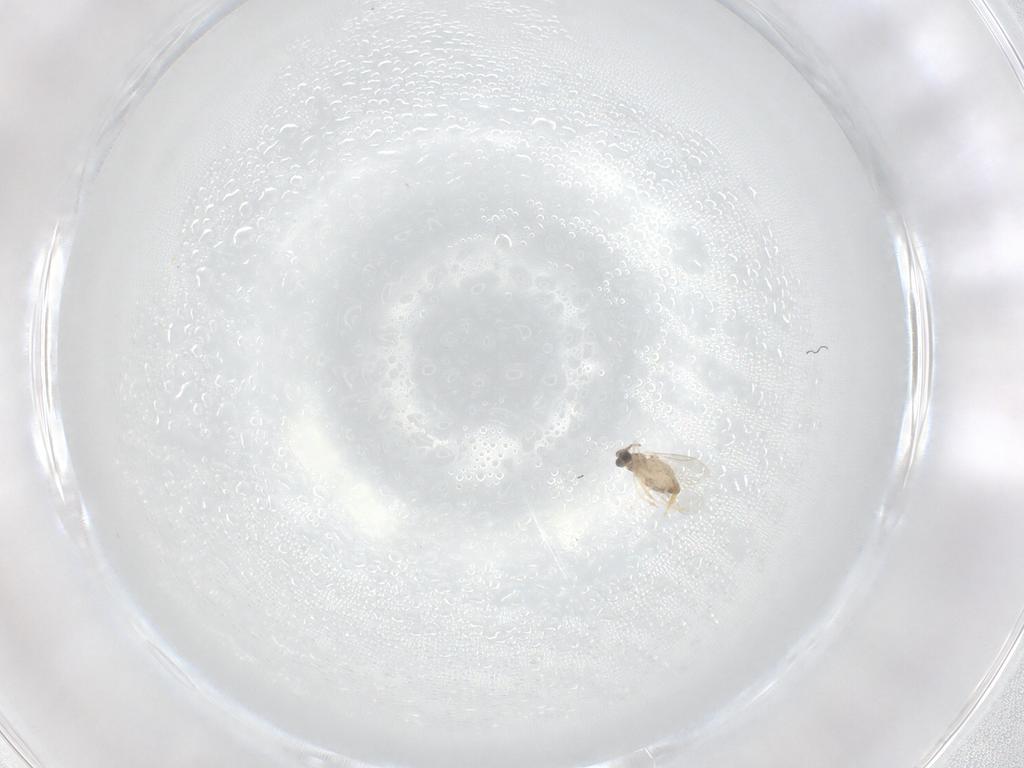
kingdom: Animalia
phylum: Arthropoda
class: Insecta
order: Diptera
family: Cecidomyiidae
